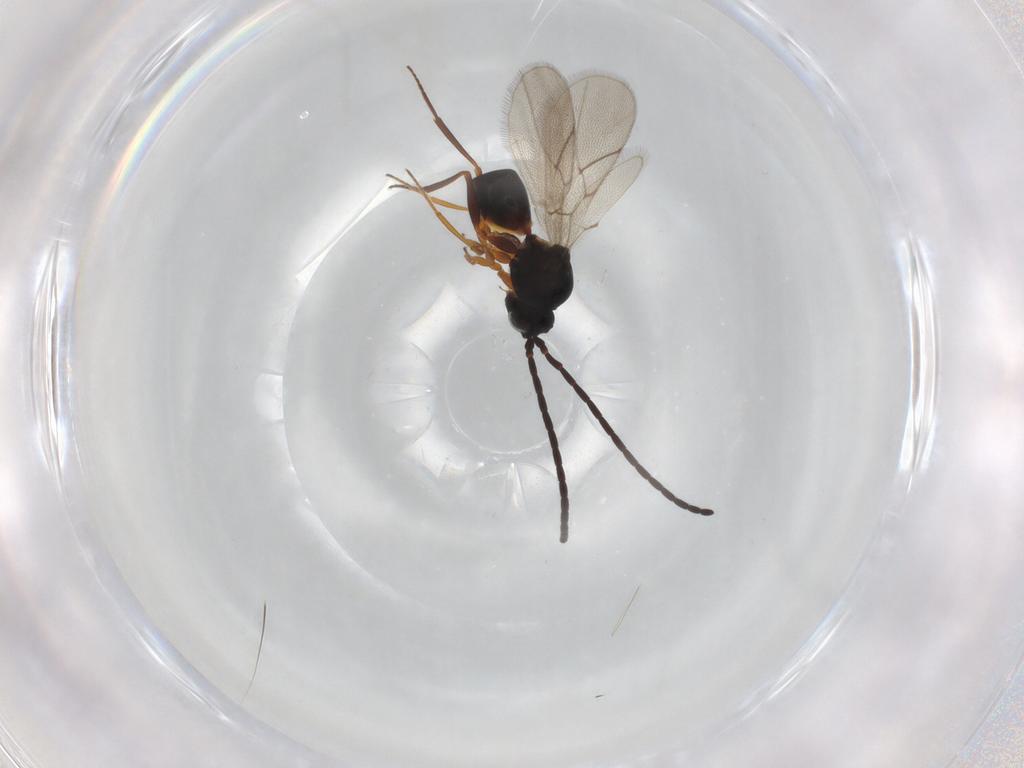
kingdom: Animalia
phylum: Arthropoda
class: Insecta
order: Hymenoptera
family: Figitidae
